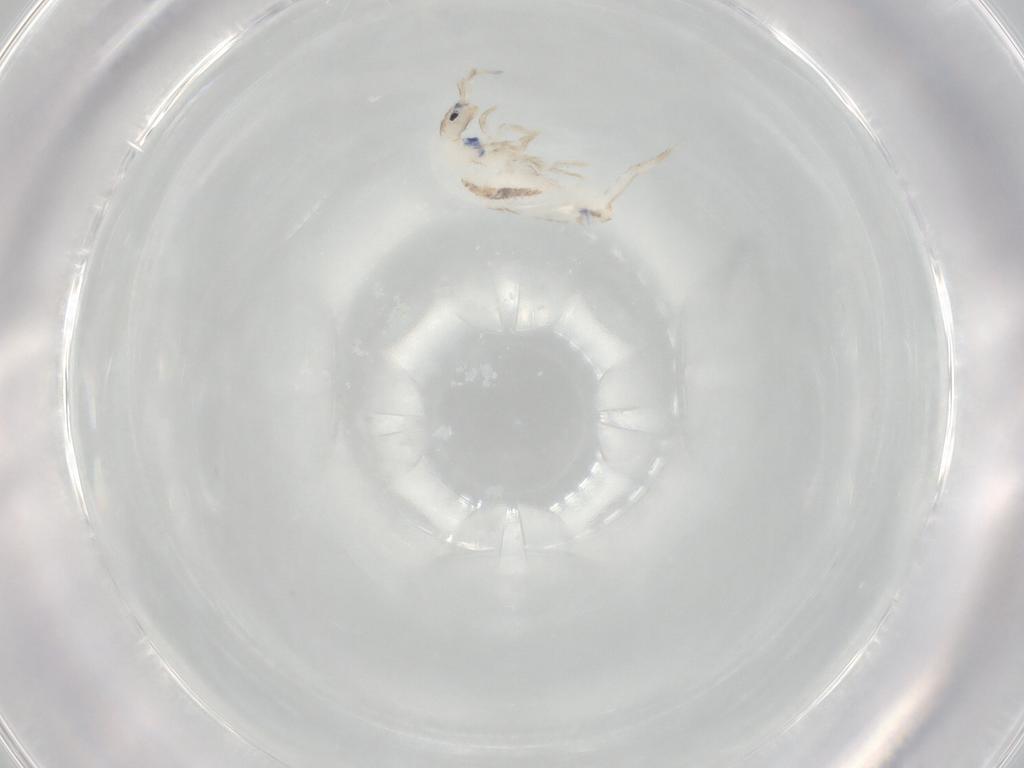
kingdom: Animalia
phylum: Arthropoda
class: Collembola
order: Entomobryomorpha
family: Entomobryidae
